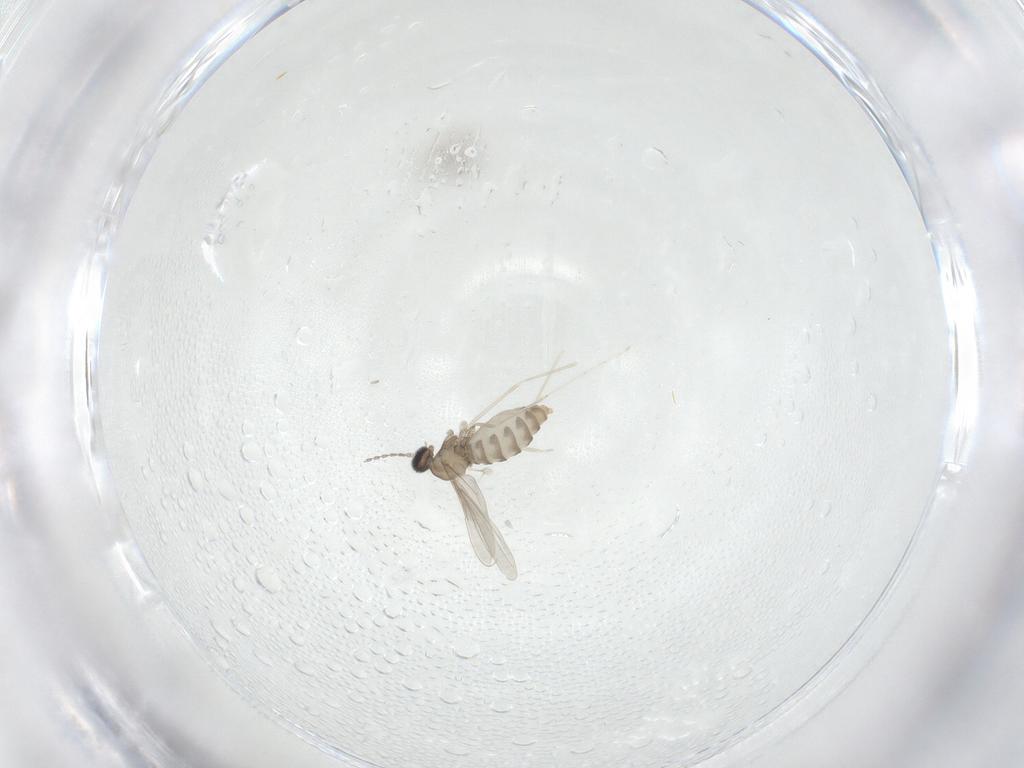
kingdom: Animalia
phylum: Arthropoda
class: Insecta
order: Diptera
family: Cecidomyiidae
